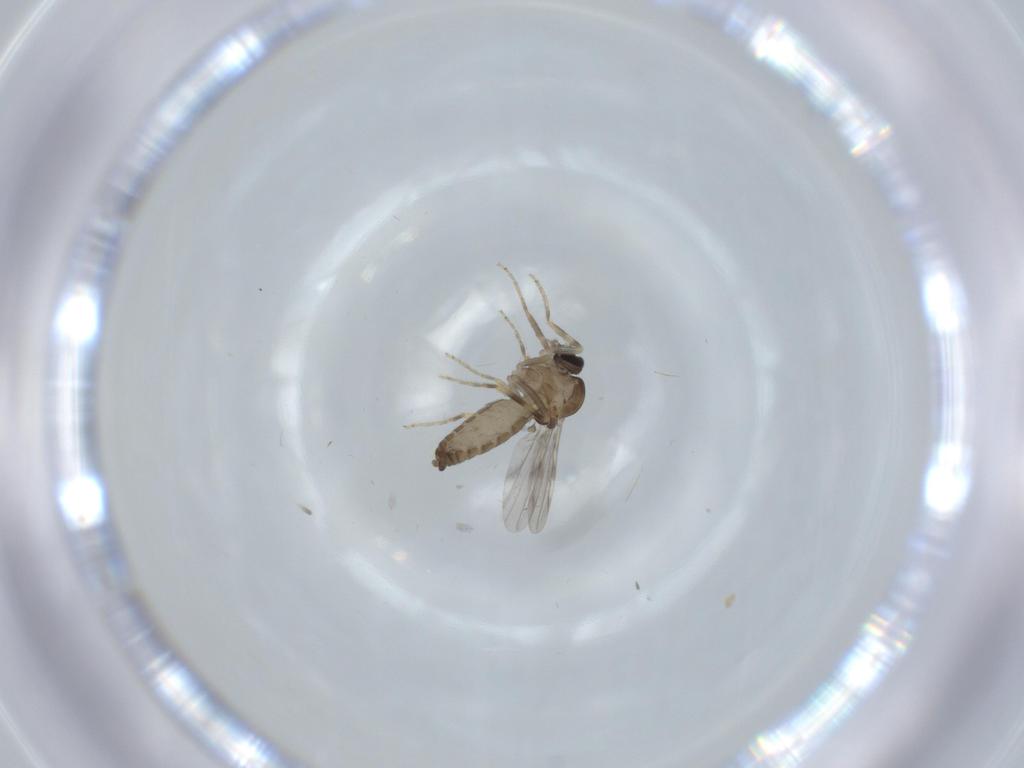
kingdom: Animalia
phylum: Arthropoda
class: Insecta
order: Diptera
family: Ceratopogonidae
